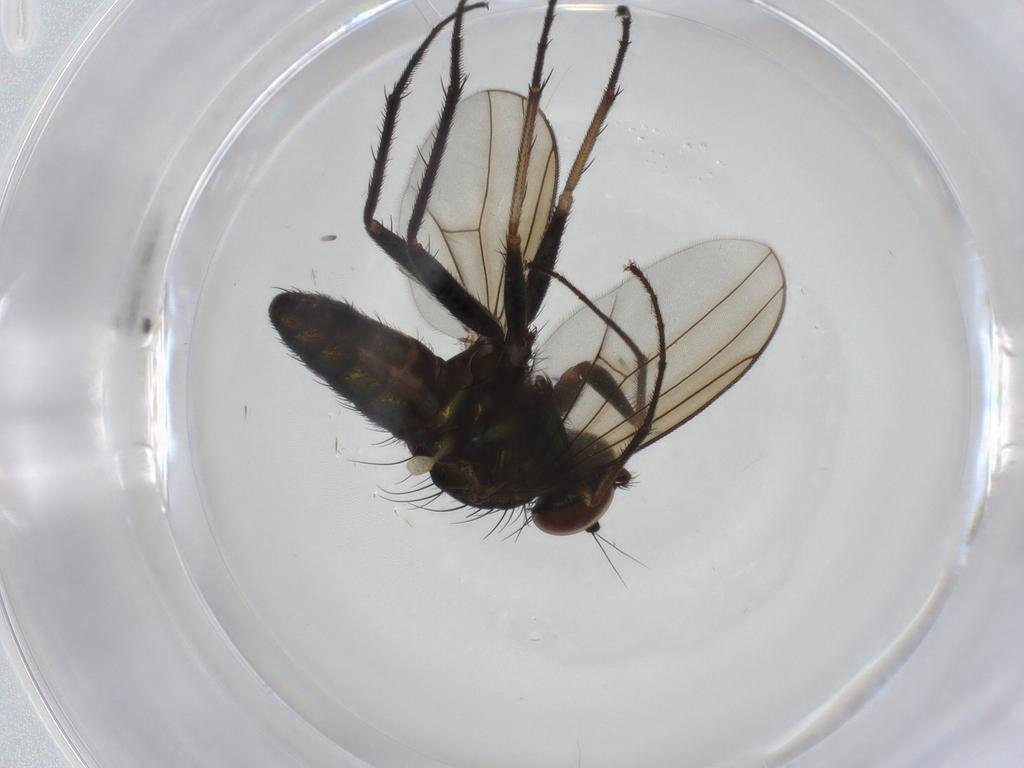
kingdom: Animalia
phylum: Arthropoda
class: Insecta
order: Diptera
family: Dolichopodidae
